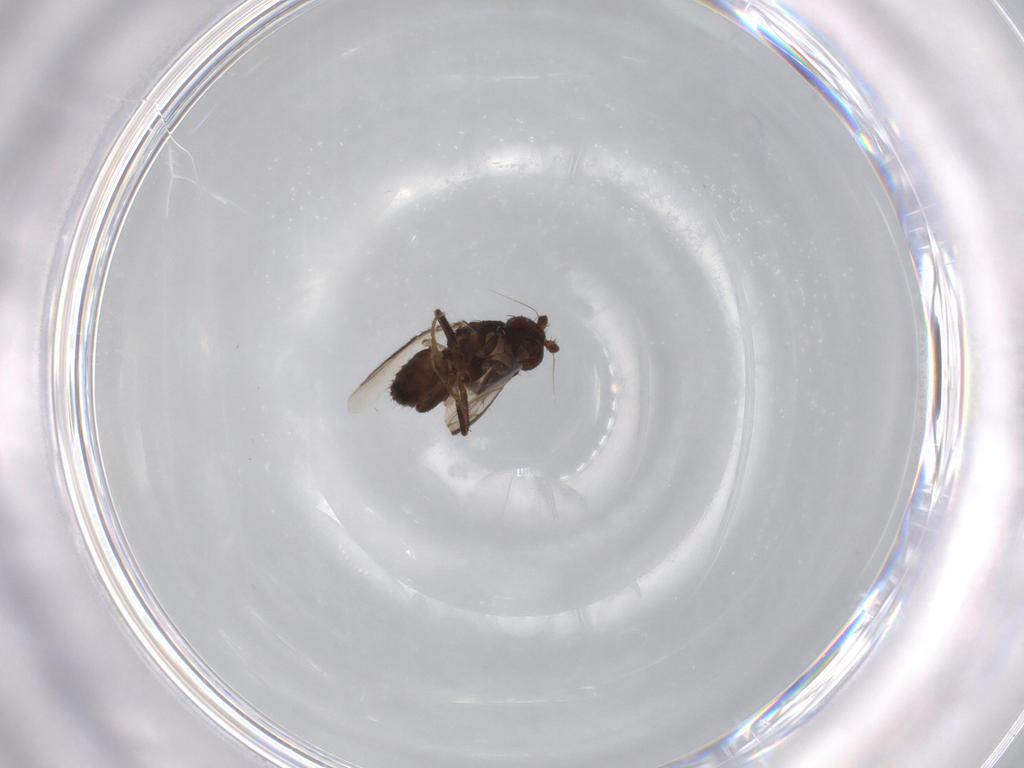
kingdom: Animalia
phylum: Arthropoda
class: Insecta
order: Diptera
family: Sphaeroceridae
